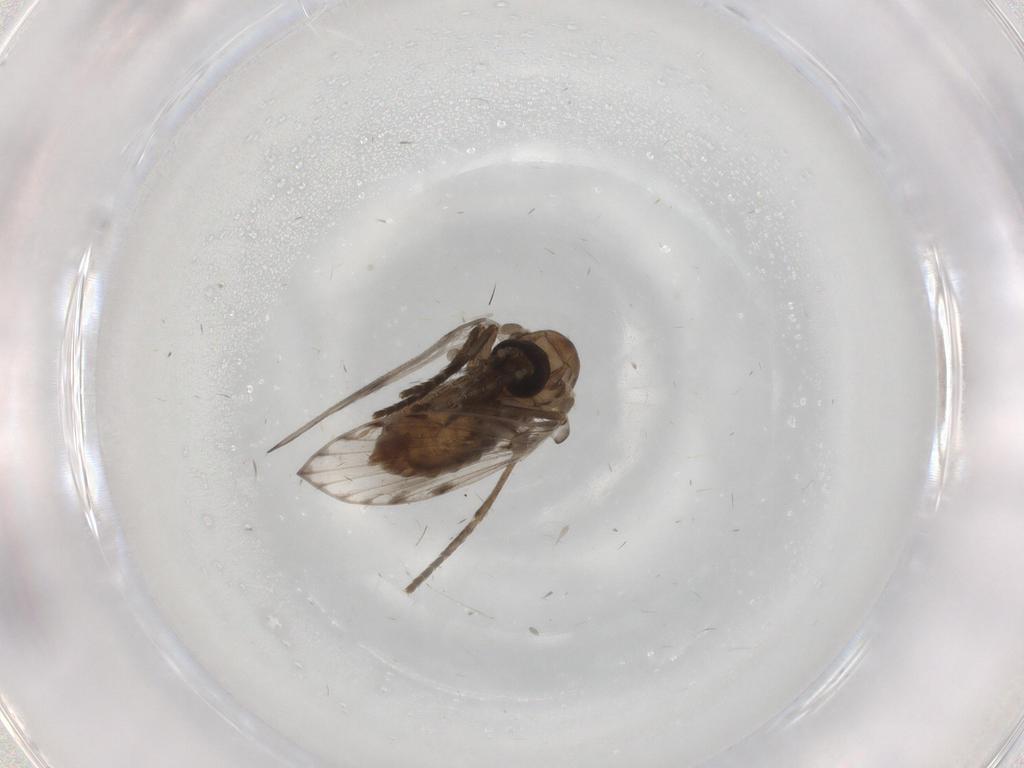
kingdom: Animalia
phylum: Arthropoda
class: Insecta
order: Diptera
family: Psychodidae
